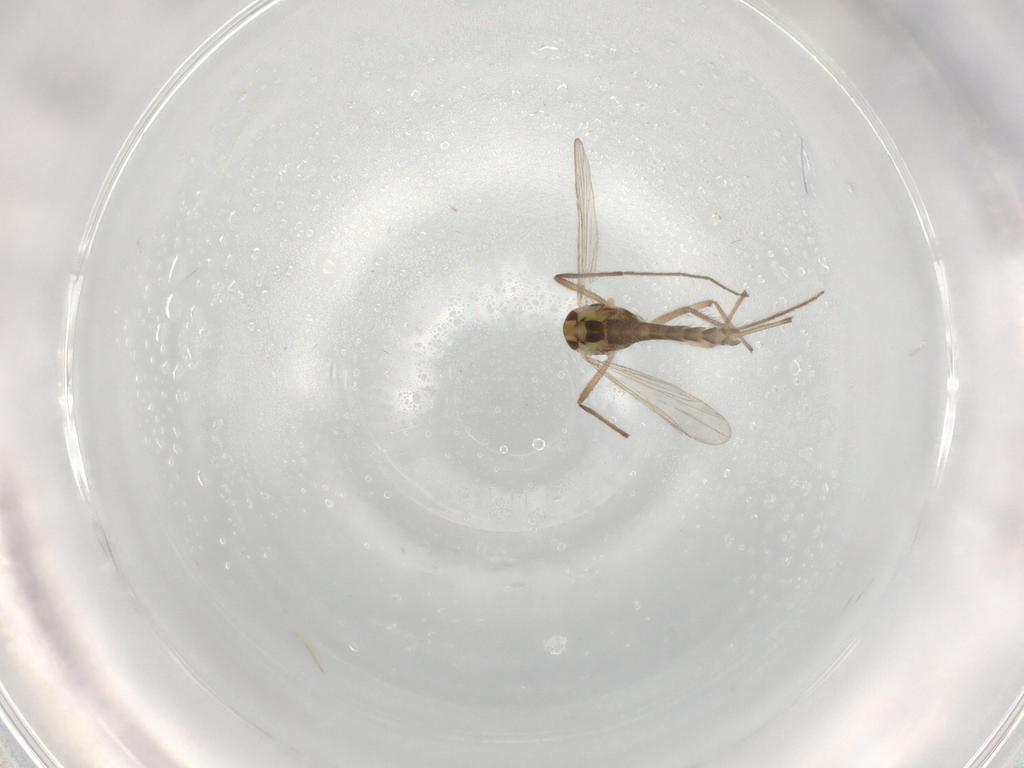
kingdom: Animalia
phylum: Arthropoda
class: Insecta
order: Diptera
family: Chironomidae
